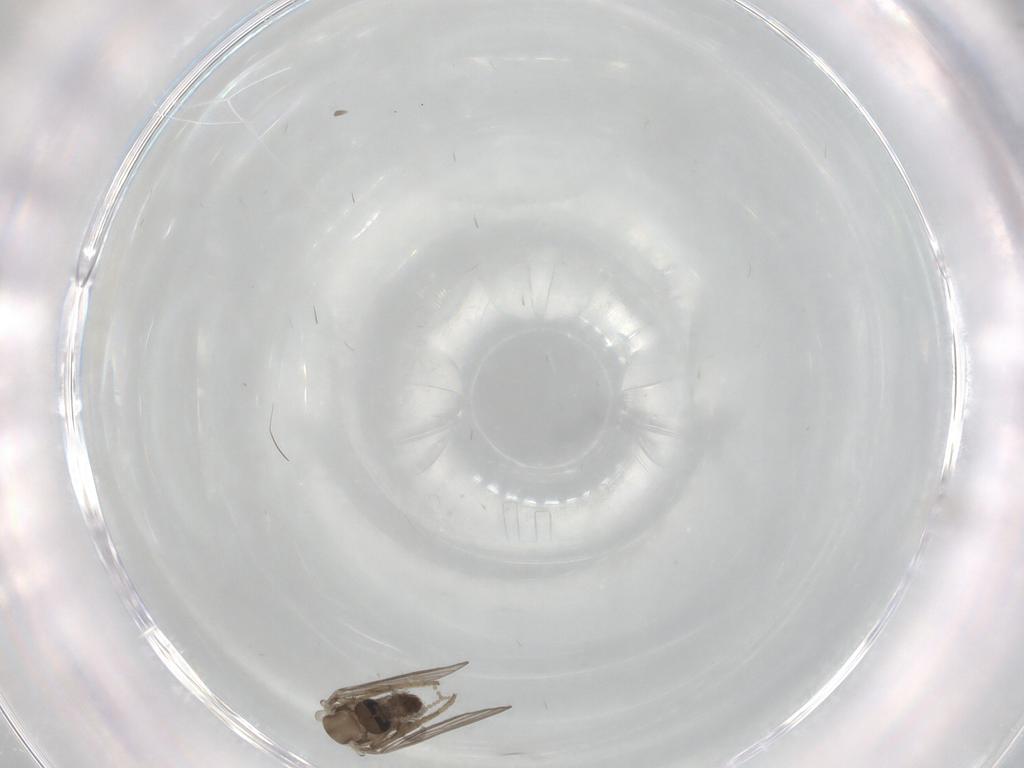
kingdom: Animalia
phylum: Arthropoda
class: Insecta
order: Diptera
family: Psychodidae
